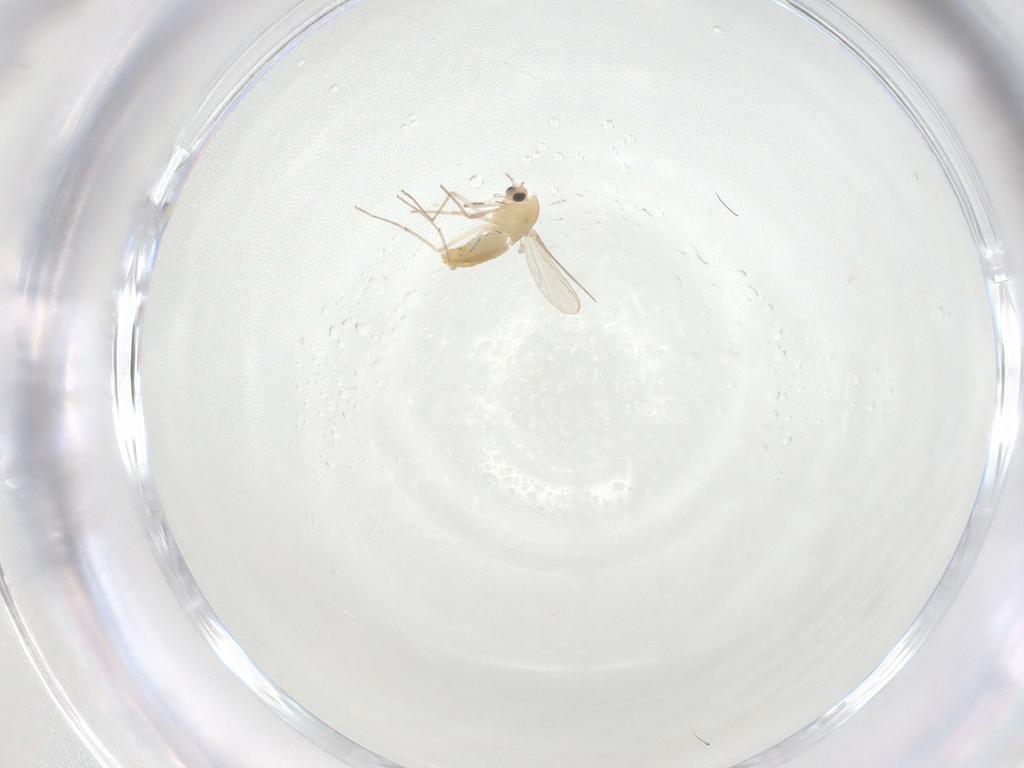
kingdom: Animalia
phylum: Arthropoda
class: Insecta
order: Diptera
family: Chironomidae
